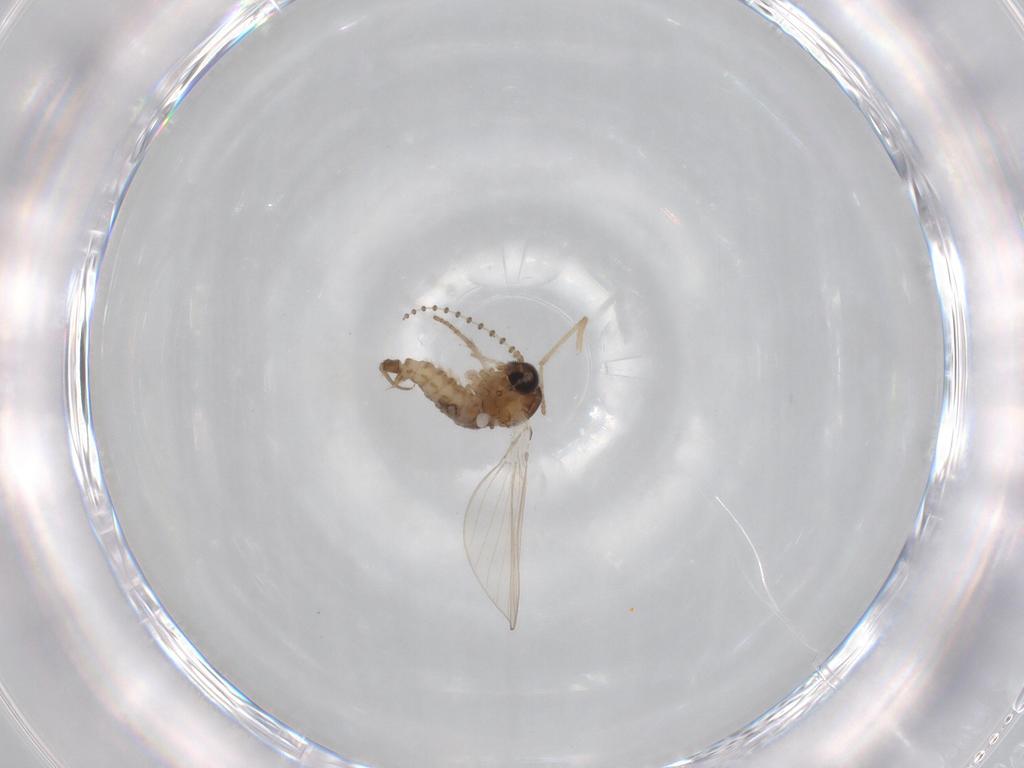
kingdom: Animalia
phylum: Arthropoda
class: Insecta
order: Diptera
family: Psychodidae
